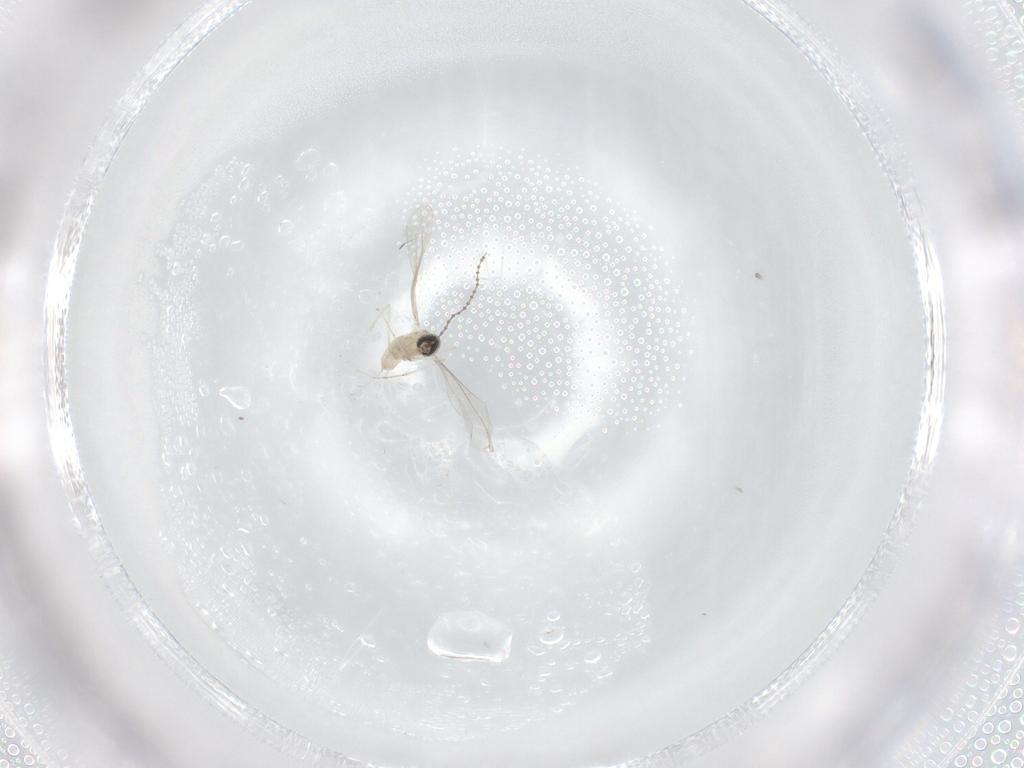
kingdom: Animalia
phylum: Arthropoda
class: Insecta
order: Diptera
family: Cecidomyiidae
